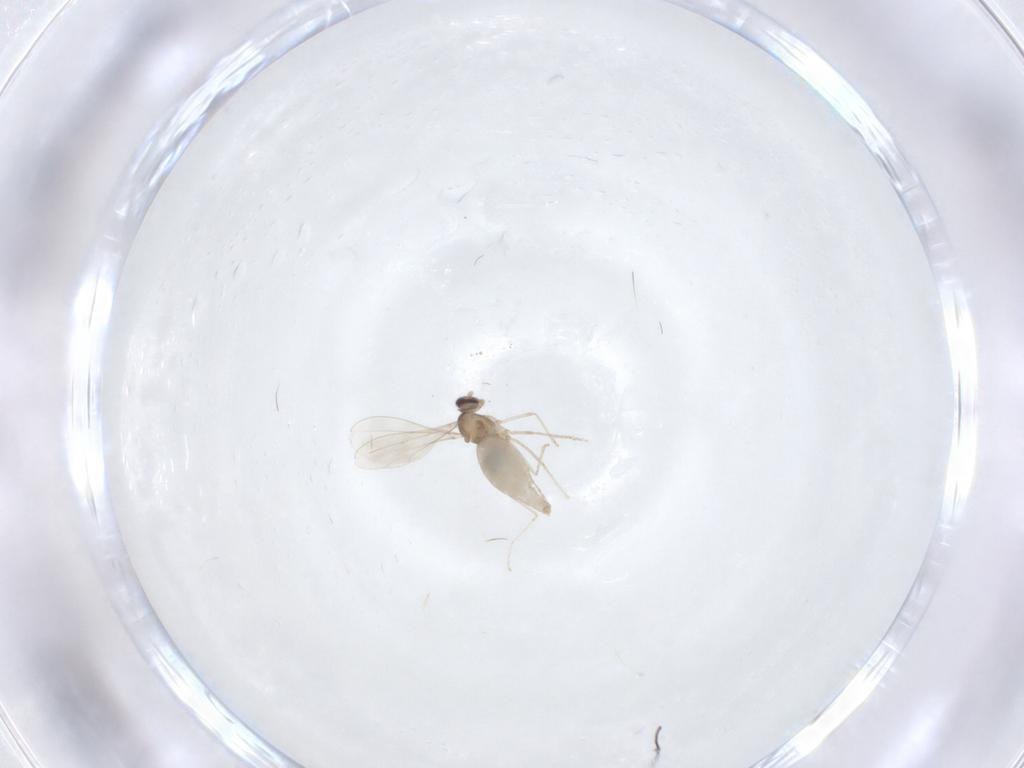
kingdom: Animalia
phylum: Arthropoda
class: Insecta
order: Diptera
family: Cecidomyiidae
